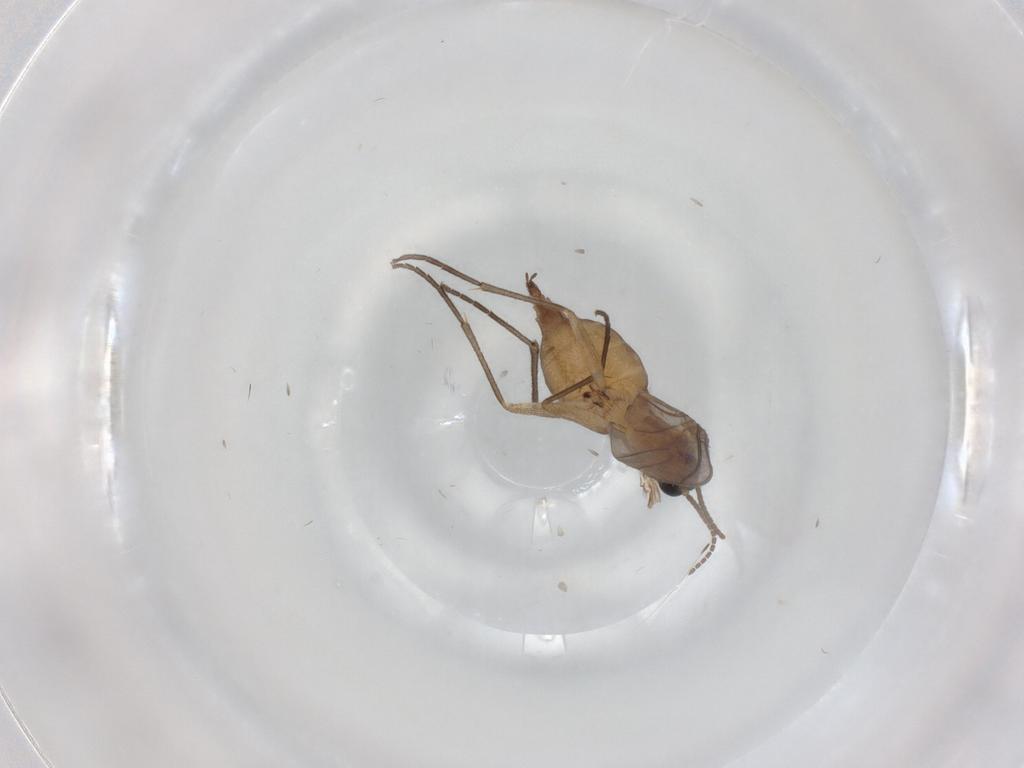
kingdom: Animalia
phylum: Arthropoda
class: Insecta
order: Diptera
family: Sciaridae
